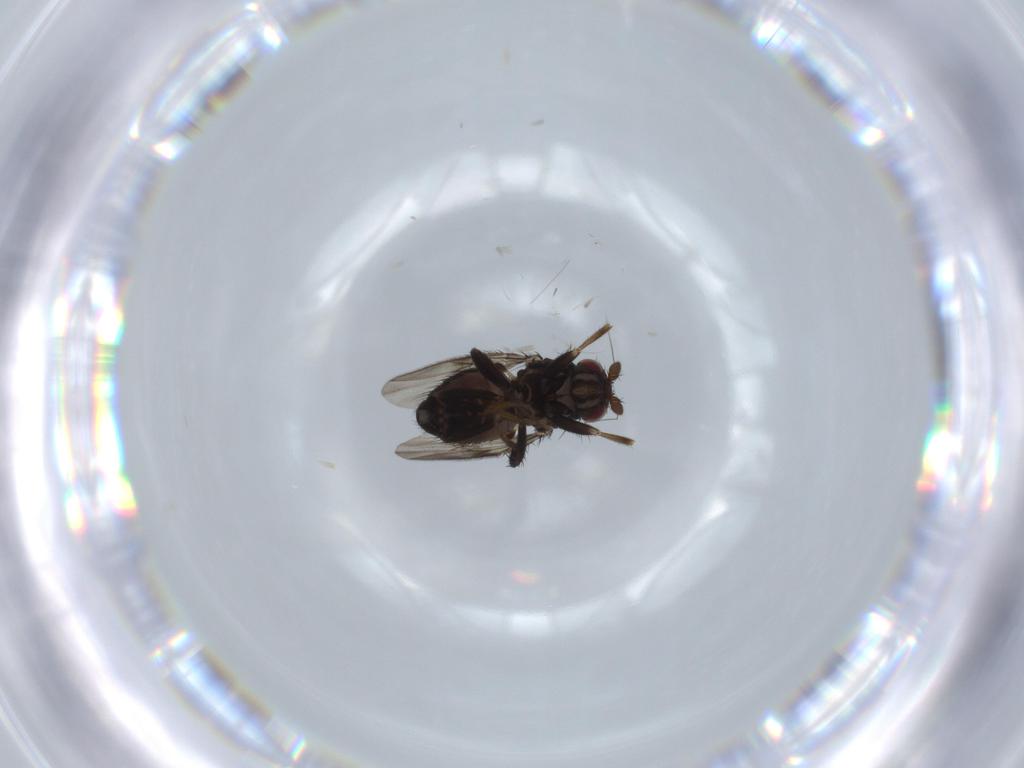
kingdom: Animalia
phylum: Arthropoda
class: Insecta
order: Diptera
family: Sphaeroceridae
